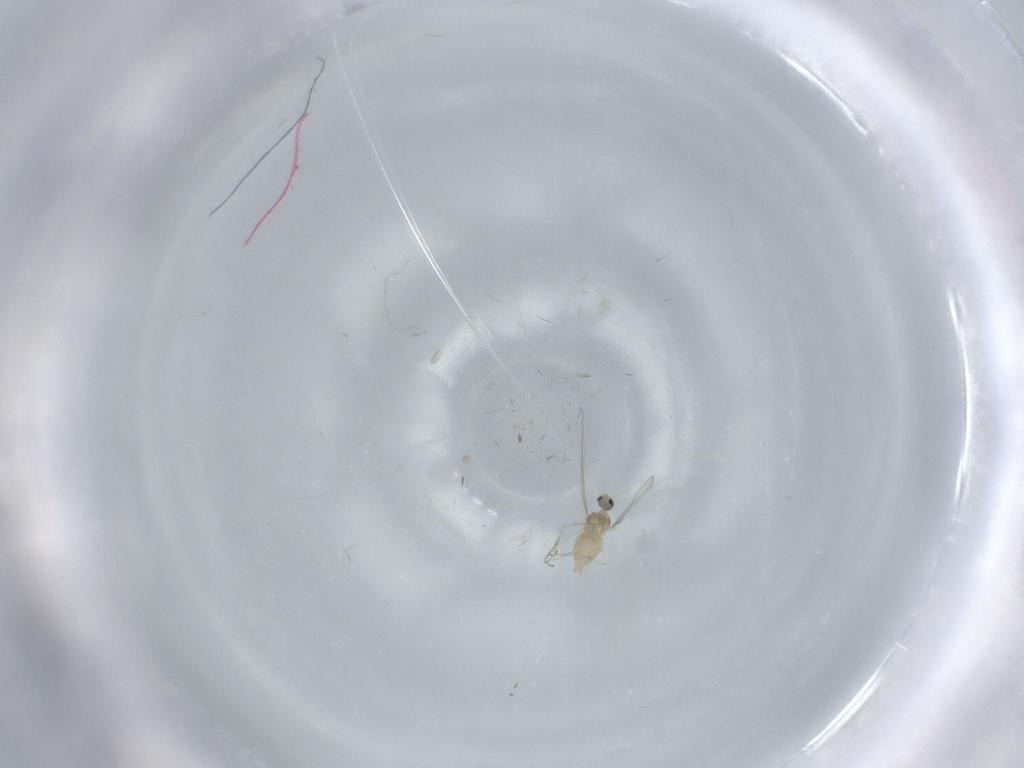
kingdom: Animalia
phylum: Arthropoda
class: Insecta
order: Diptera
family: Cecidomyiidae
